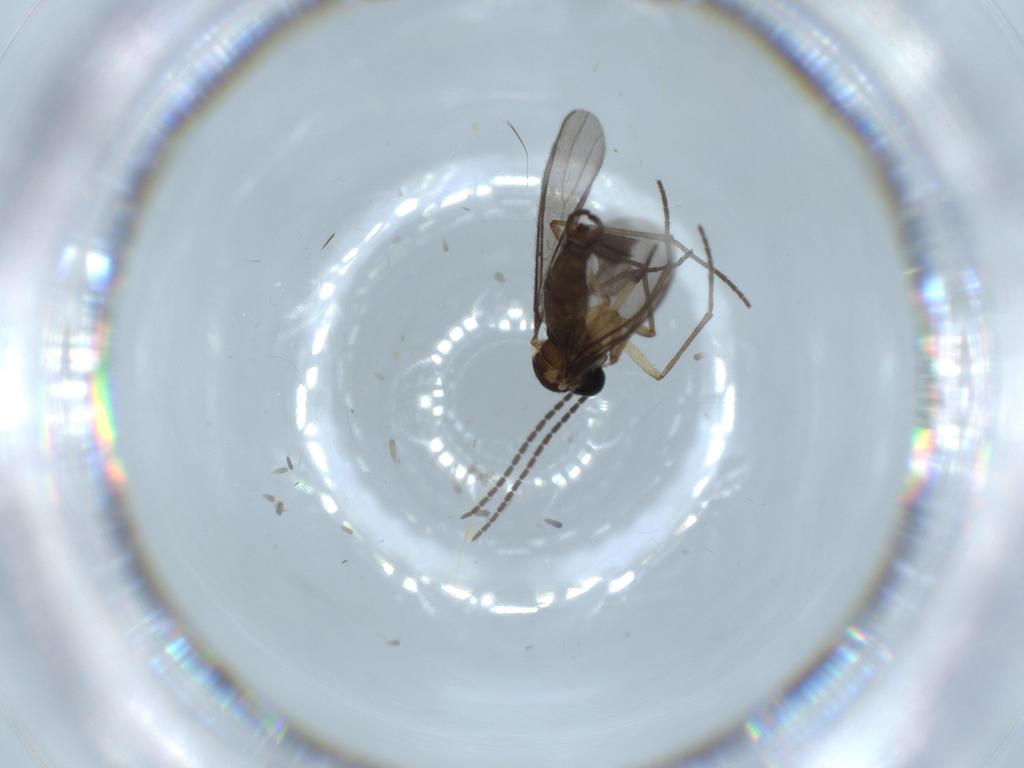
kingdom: Animalia
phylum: Arthropoda
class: Insecta
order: Diptera
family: Sciaridae
